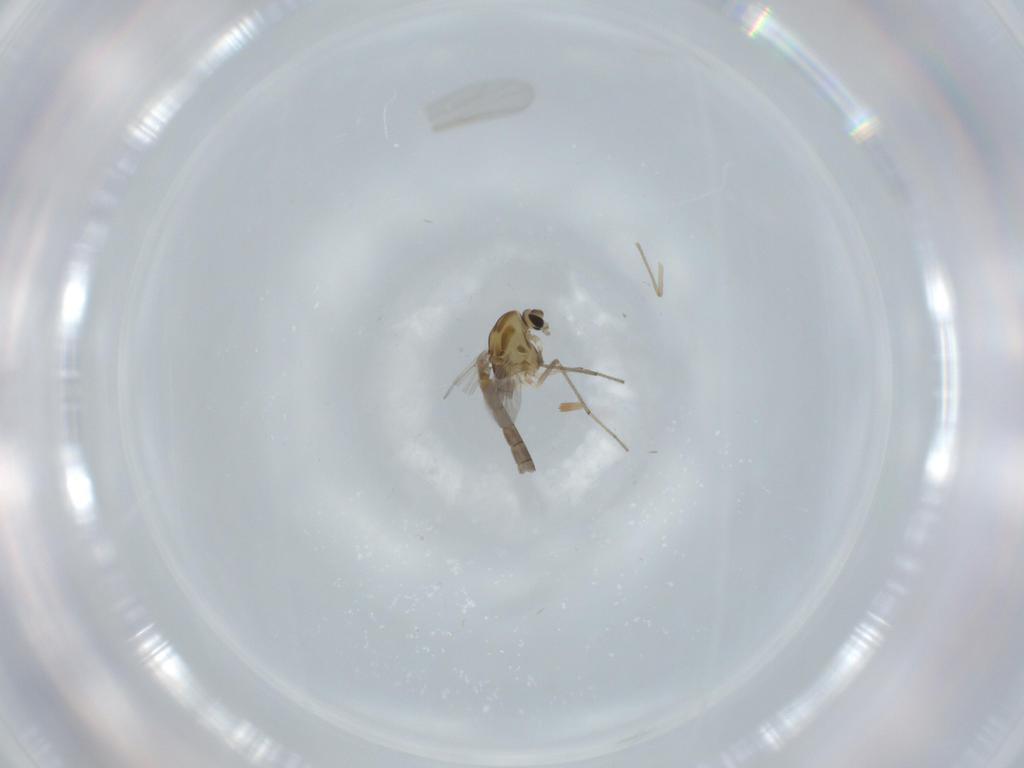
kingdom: Animalia
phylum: Arthropoda
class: Insecta
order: Diptera
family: Chironomidae
